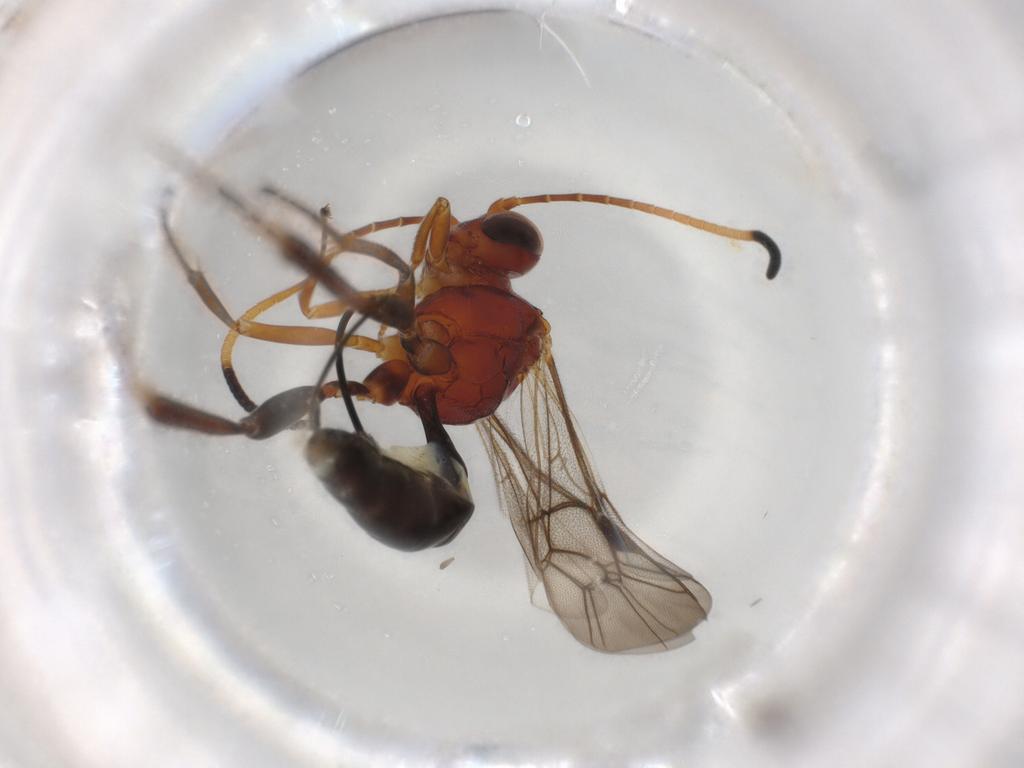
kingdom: Animalia
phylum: Arthropoda
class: Insecta
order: Hymenoptera
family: Ichneumonidae
